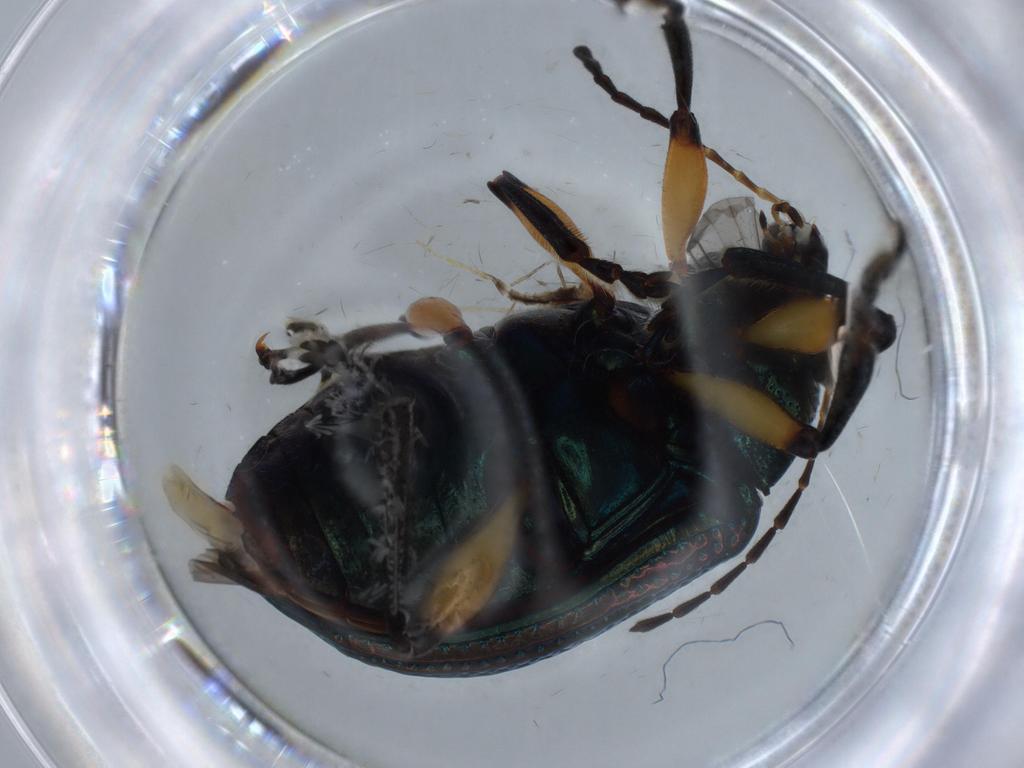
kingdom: Animalia
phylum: Arthropoda
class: Insecta
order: Coleoptera
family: Chrysomelidae
